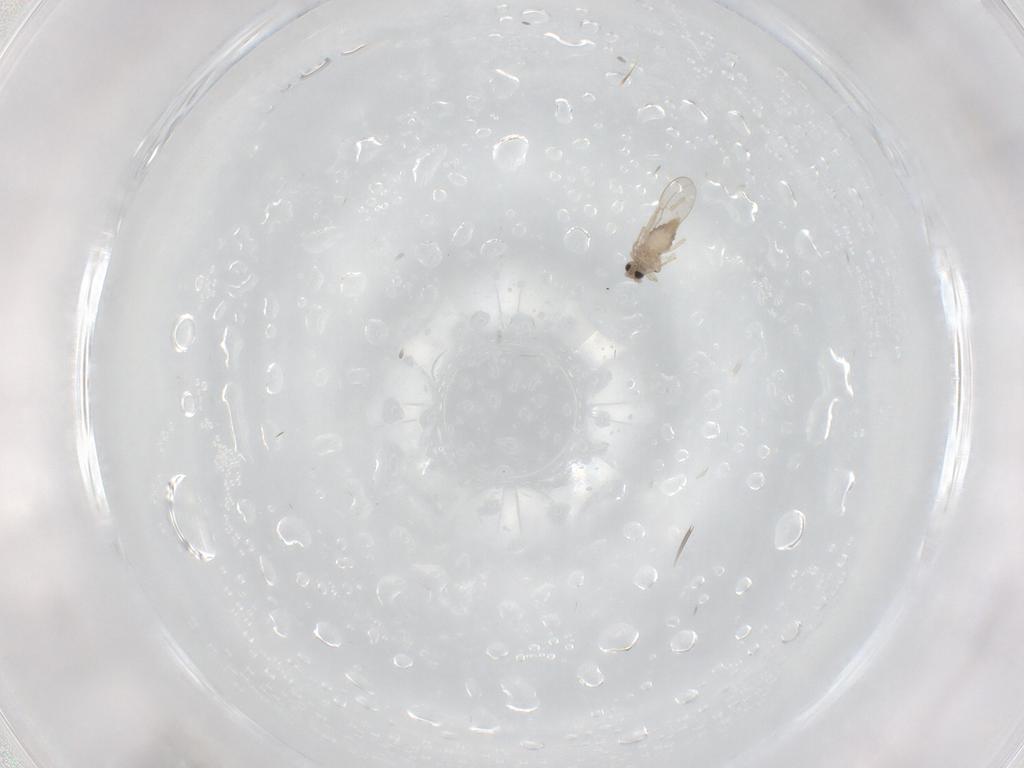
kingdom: Animalia
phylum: Arthropoda
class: Insecta
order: Diptera
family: Cecidomyiidae
